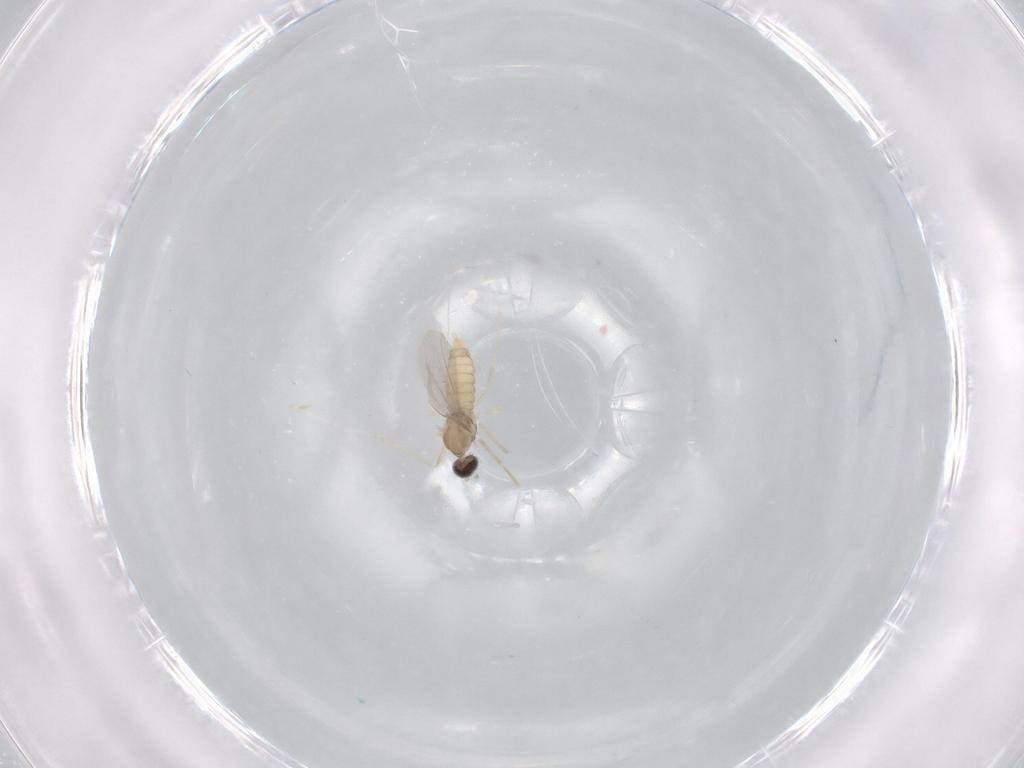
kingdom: Animalia
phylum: Arthropoda
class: Insecta
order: Diptera
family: Cecidomyiidae
